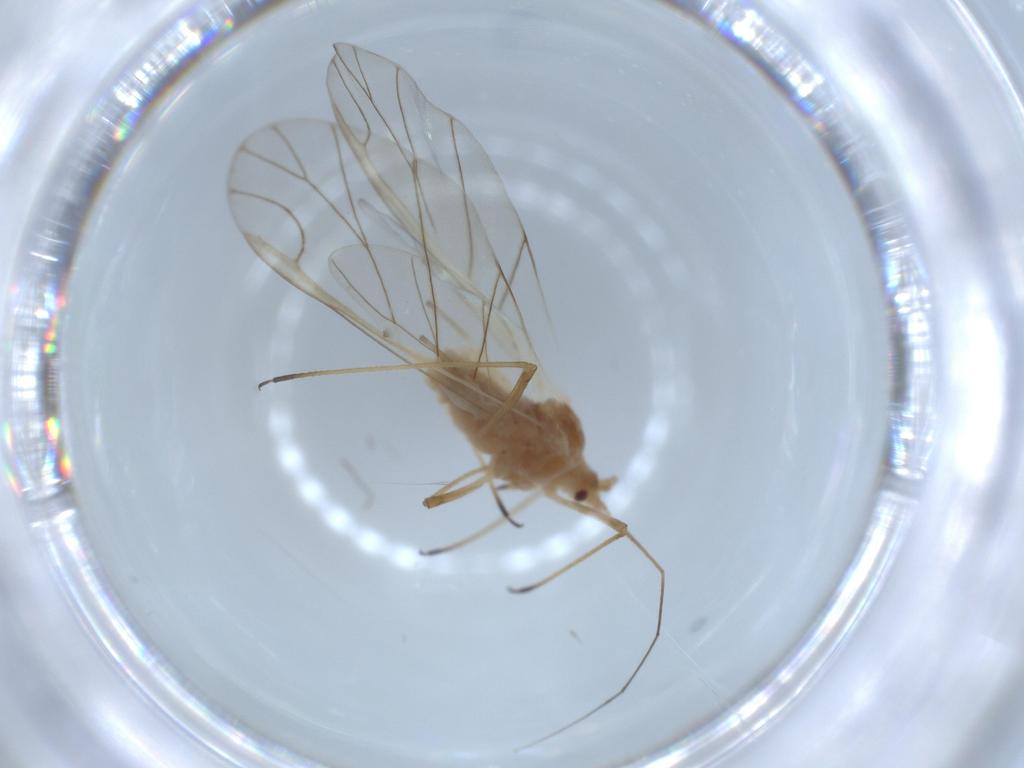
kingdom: Animalia
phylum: Arthropoda
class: Insecta
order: Hemiptera
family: Aphididae
